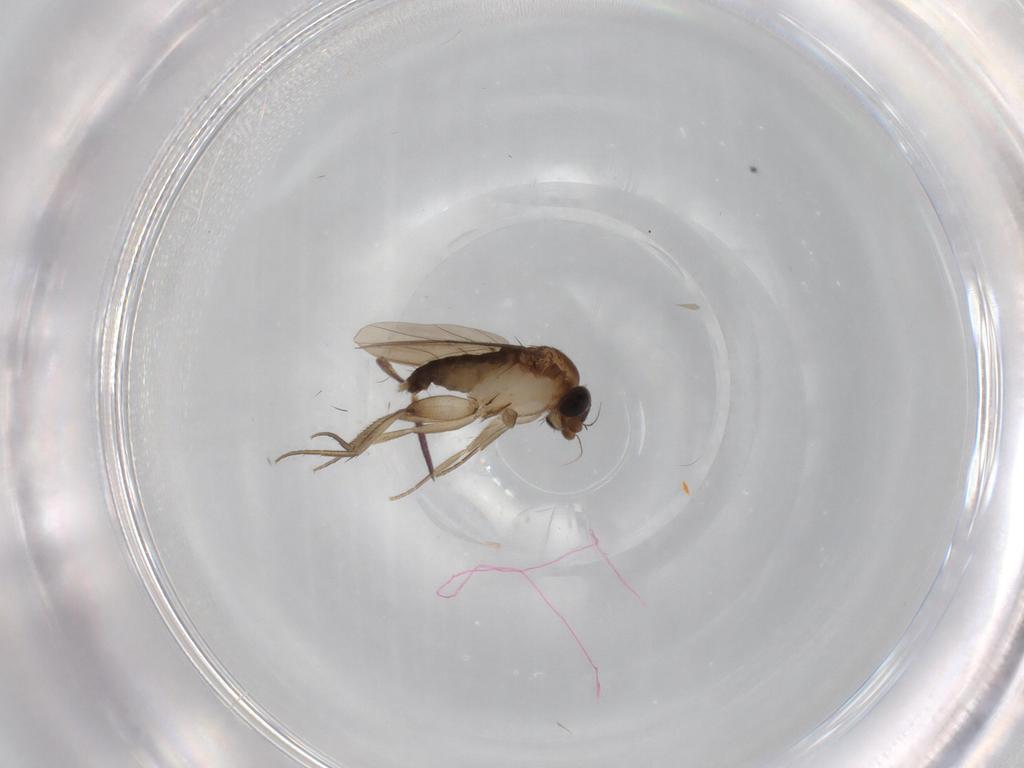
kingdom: Animalia
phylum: Arthropoda
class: Insecta
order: Diptera
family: Phoridae
